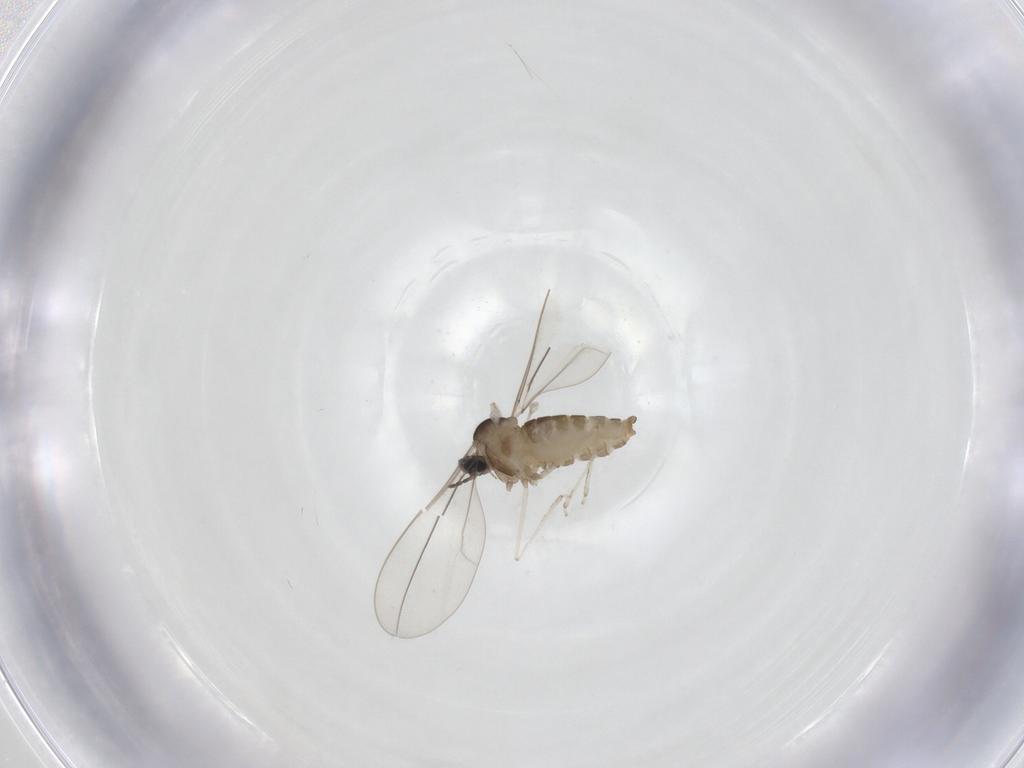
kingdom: Animalia
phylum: Arthropoda
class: Insecta
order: Diptera
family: Cecidomyiidae
